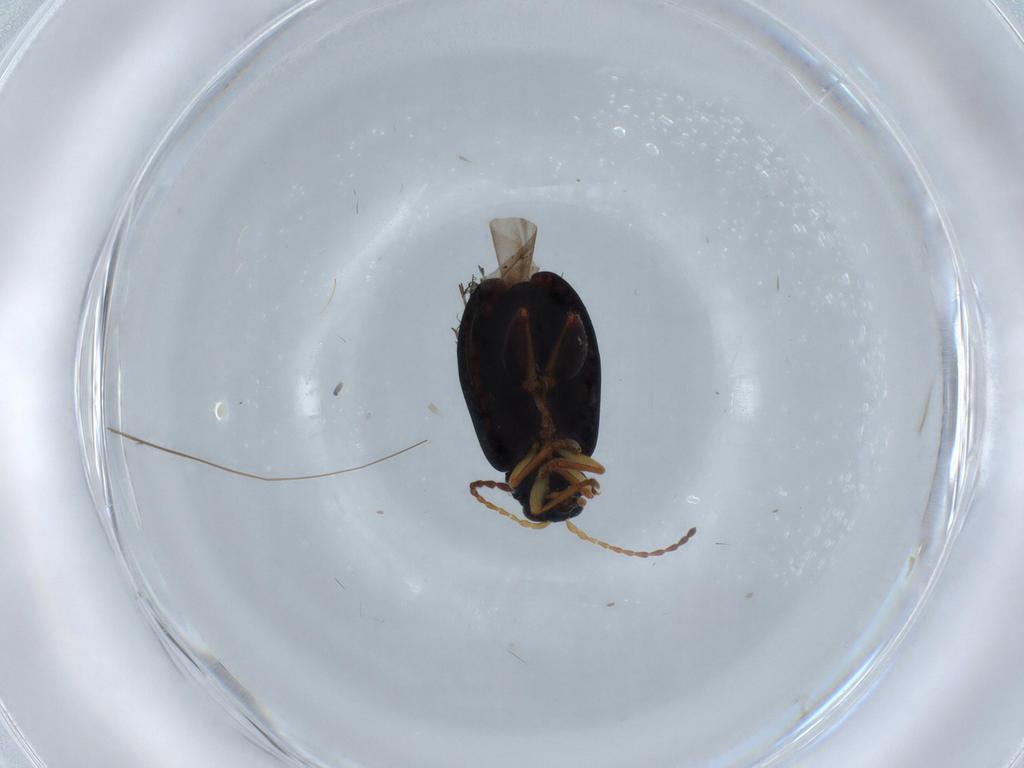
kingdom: Animalia
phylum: Arthropoda
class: Insecta
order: Coleoptera
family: Chrysomelidae
